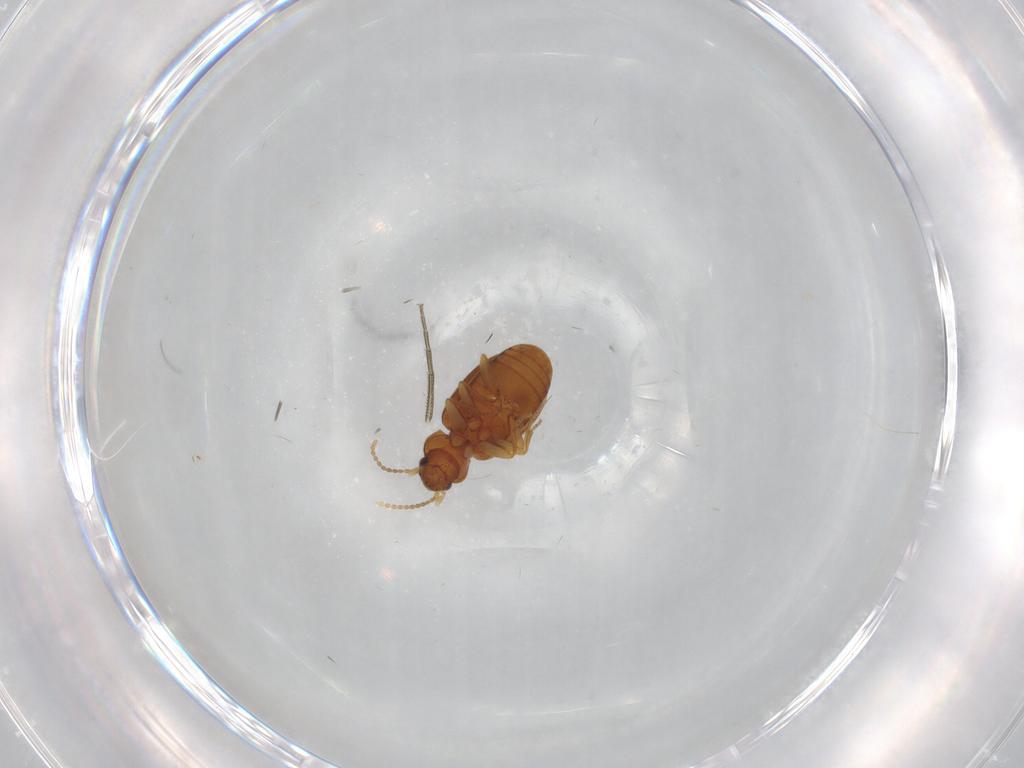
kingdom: Animalia
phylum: Arthropoda
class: Insecta
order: Coleoptera
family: Carabidae
